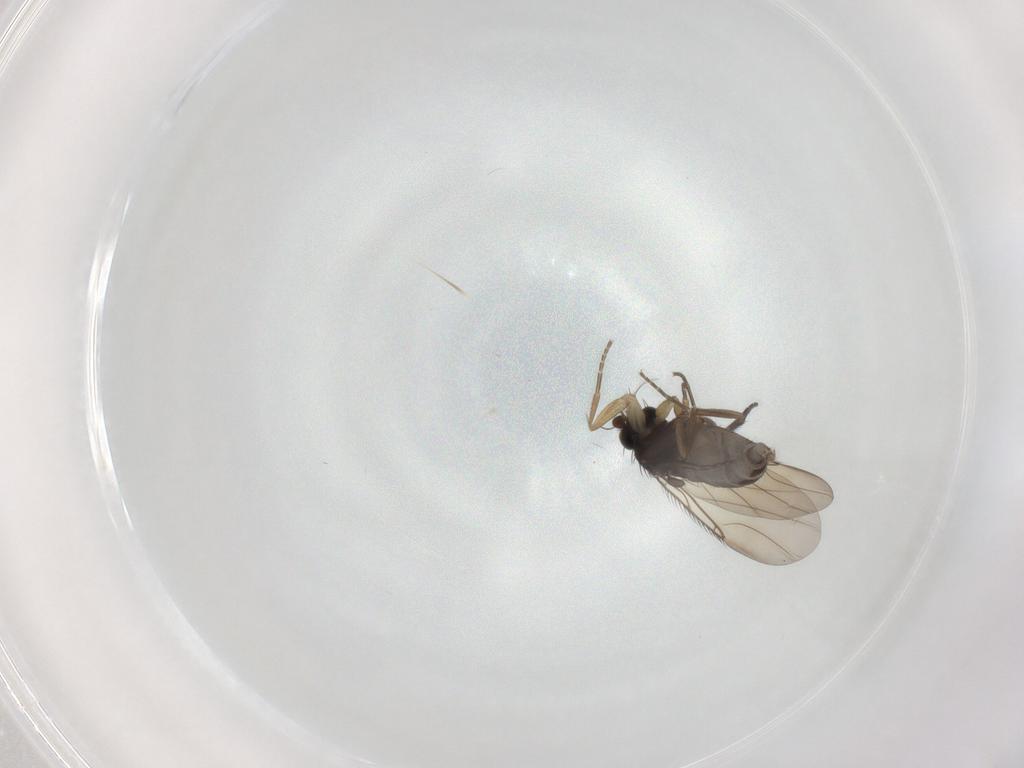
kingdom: Animalia
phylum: Arthropoda
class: Insecta
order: Diptera
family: Phoridae
